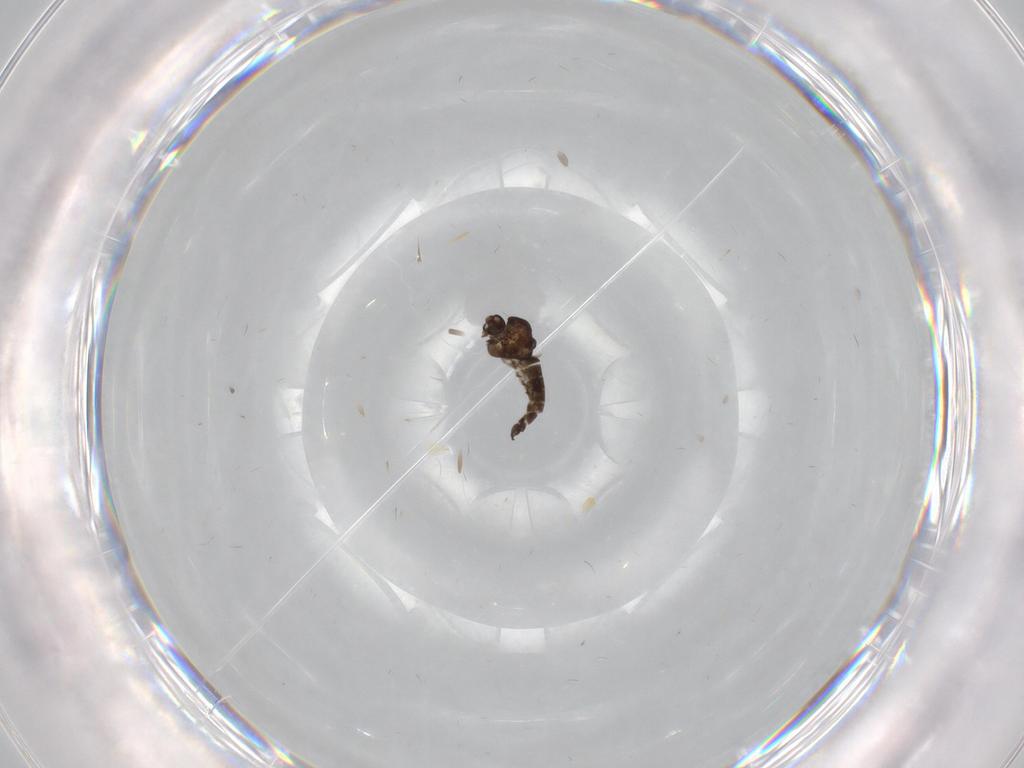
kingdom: Animalia
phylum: Arthropoda
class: Insecta
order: Diptera
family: Chironomidae
